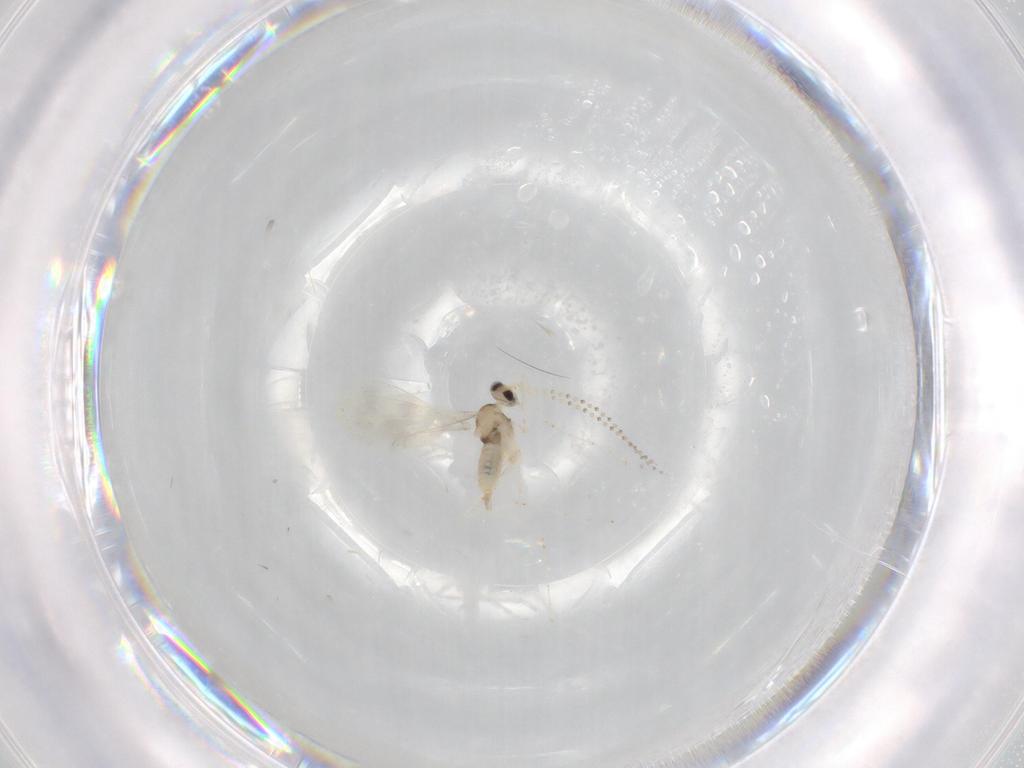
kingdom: Animalia
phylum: Arthropoda
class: Insecta
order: Diptera
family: Cecidomyiidae
